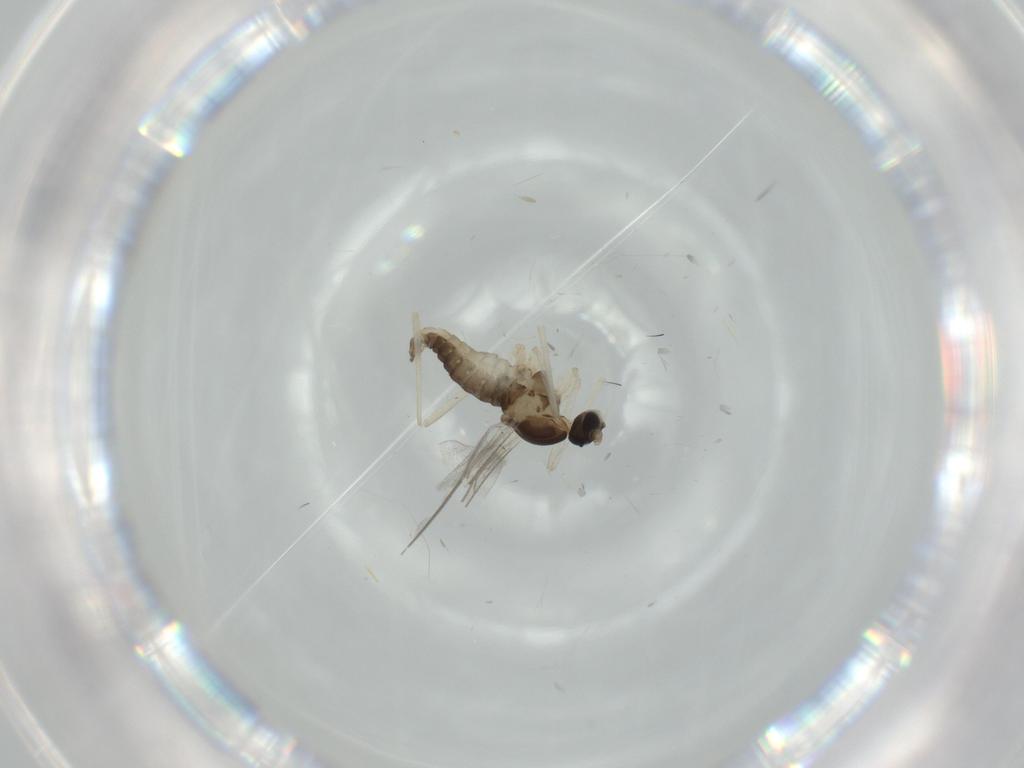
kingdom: Animalia
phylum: Arthropoda
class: Insecta
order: Diptera
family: Cecidomyiidae
